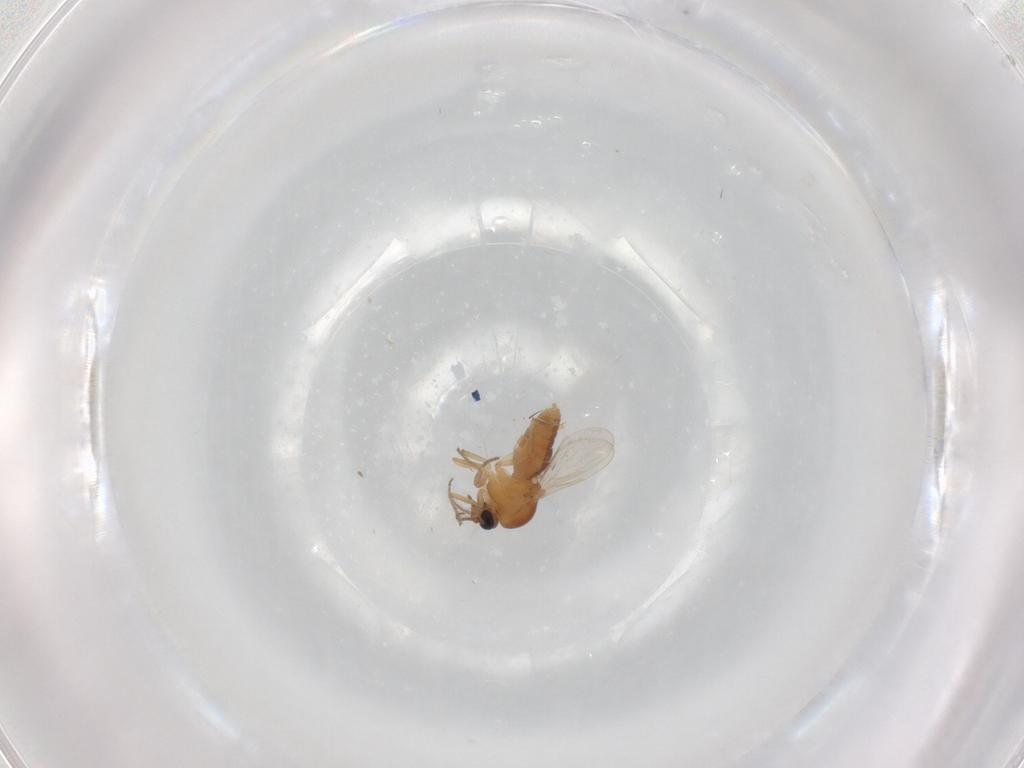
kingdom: Animalia
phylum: Arthropoda
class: Insecta
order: Diptera
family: Ceratopogonidae
